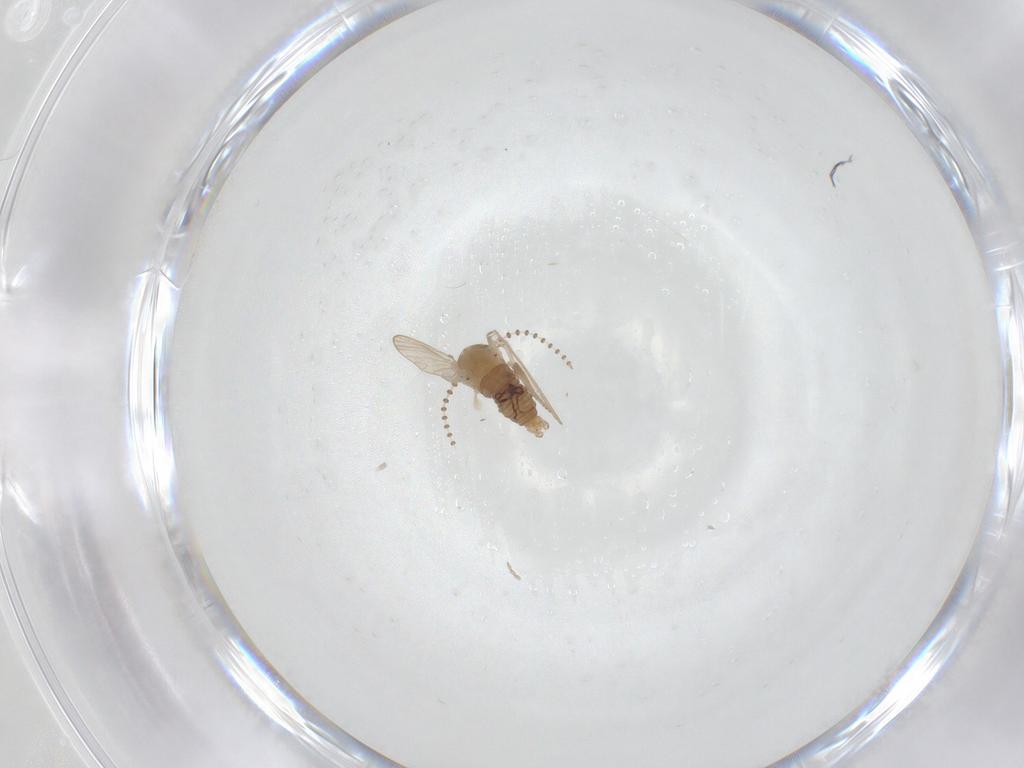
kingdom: Animalia
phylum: Arthropoda
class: Insecta
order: Diptera
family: Psychodidae
